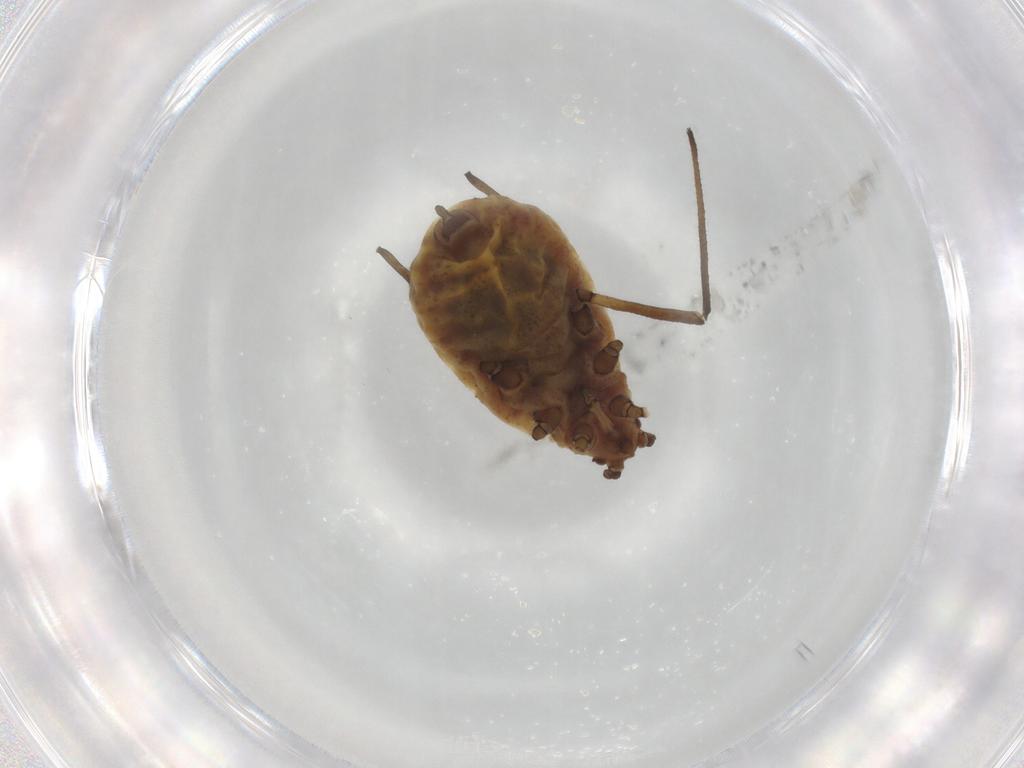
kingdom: Animalia
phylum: Arthropoda
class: Insecta
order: Hemiptera
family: Aphididae
